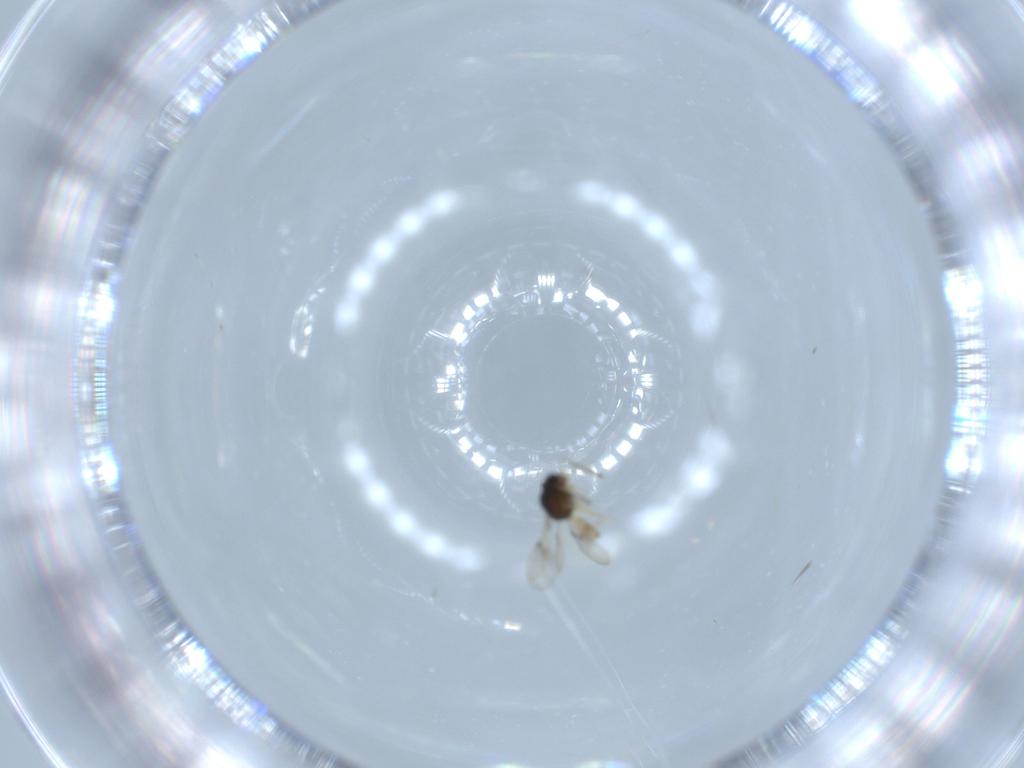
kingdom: Animalia
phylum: Arthropoda
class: Insecta
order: Hymenoptera
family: Scelionidae
